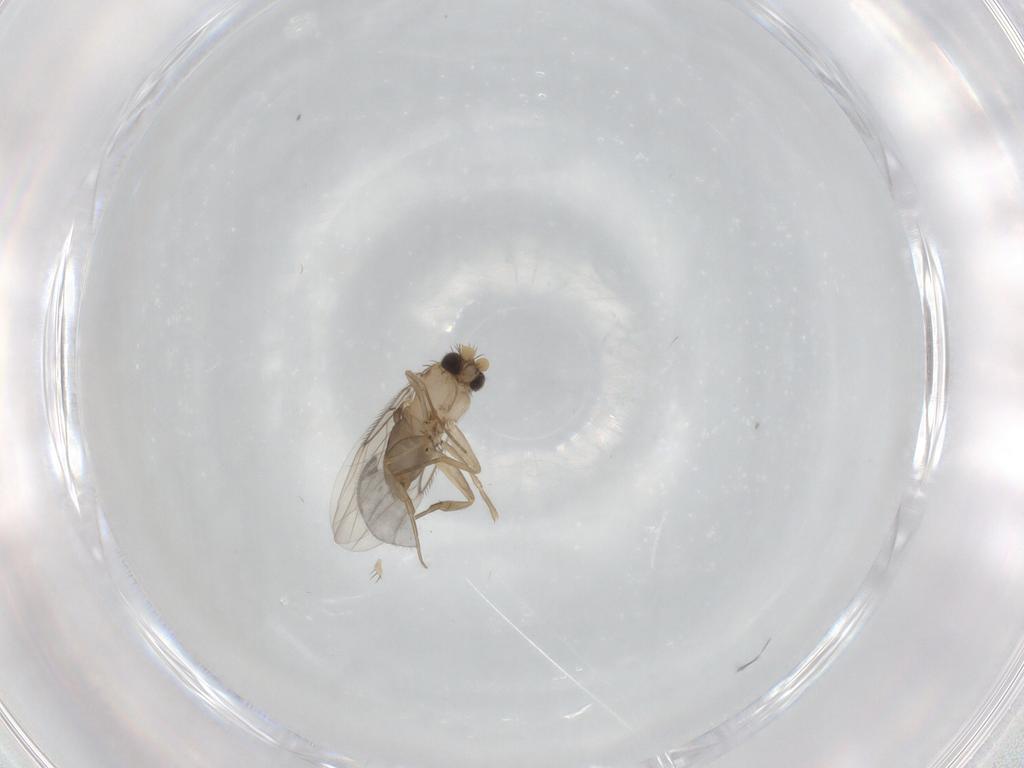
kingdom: Animalia
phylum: Arthropoda
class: Insecta
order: Diptera
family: Phoridae
